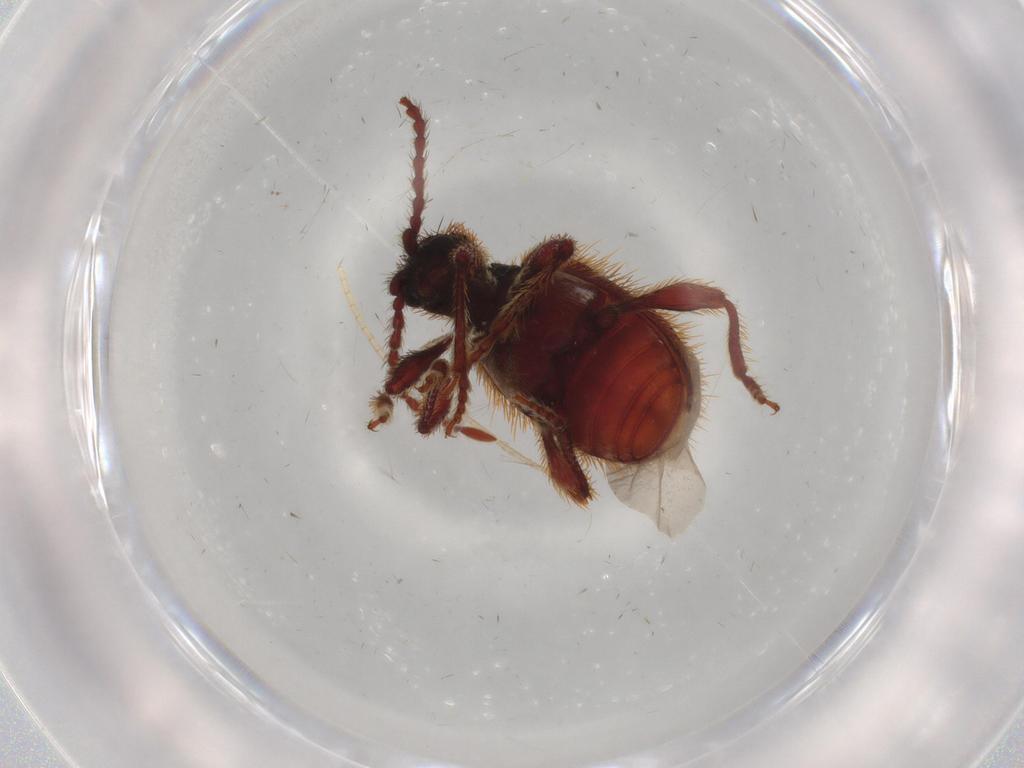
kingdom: Animalia
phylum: Arthropoda
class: Insecta
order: Coleoptera
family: Ptinidae
